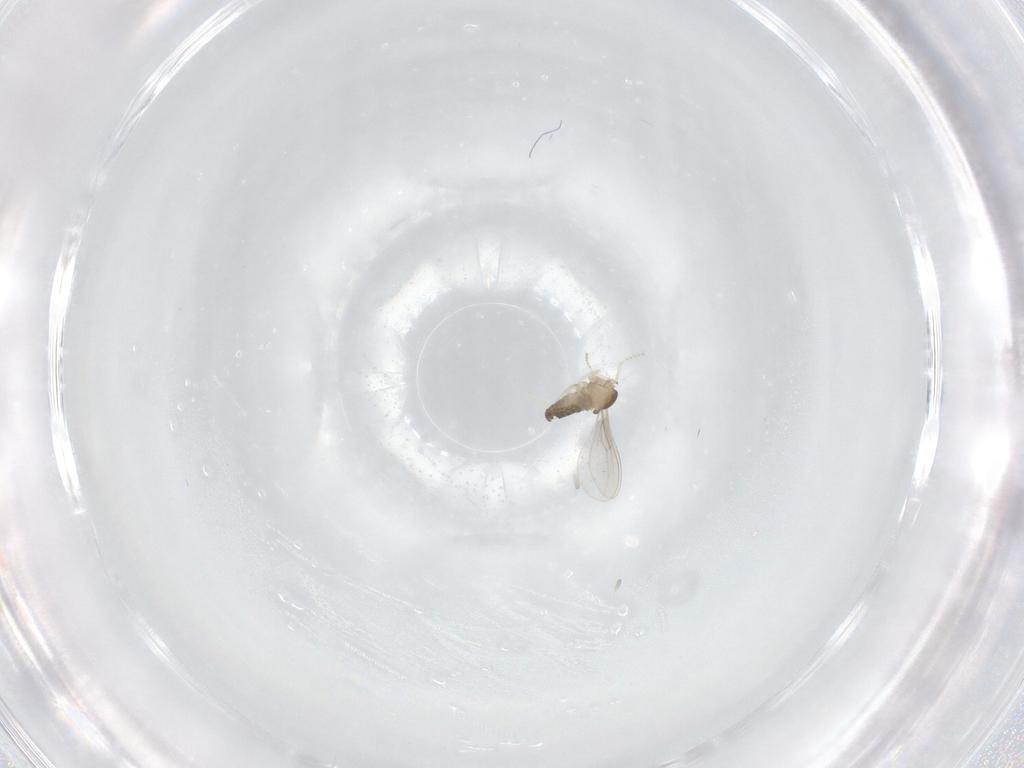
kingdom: Animalia
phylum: Arthropoda
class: Insecta
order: Diptera
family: Cecidomyiidae
